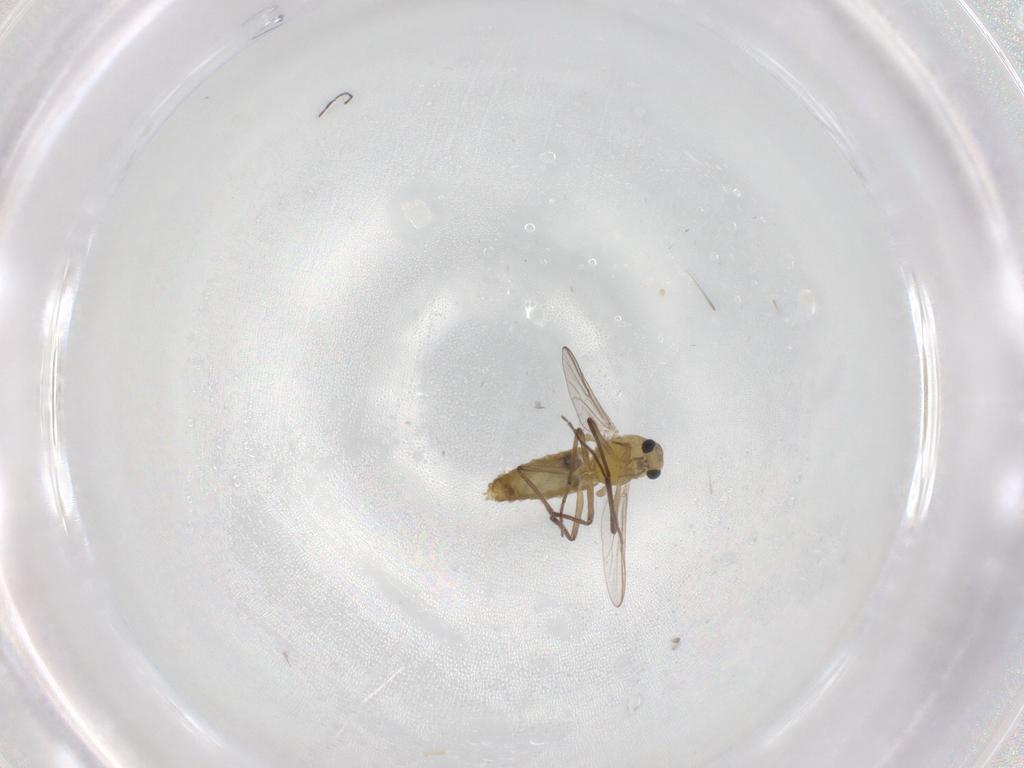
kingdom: Animalia
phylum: Arthropoda
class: Insecta
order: Diptera
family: Chironomidae
